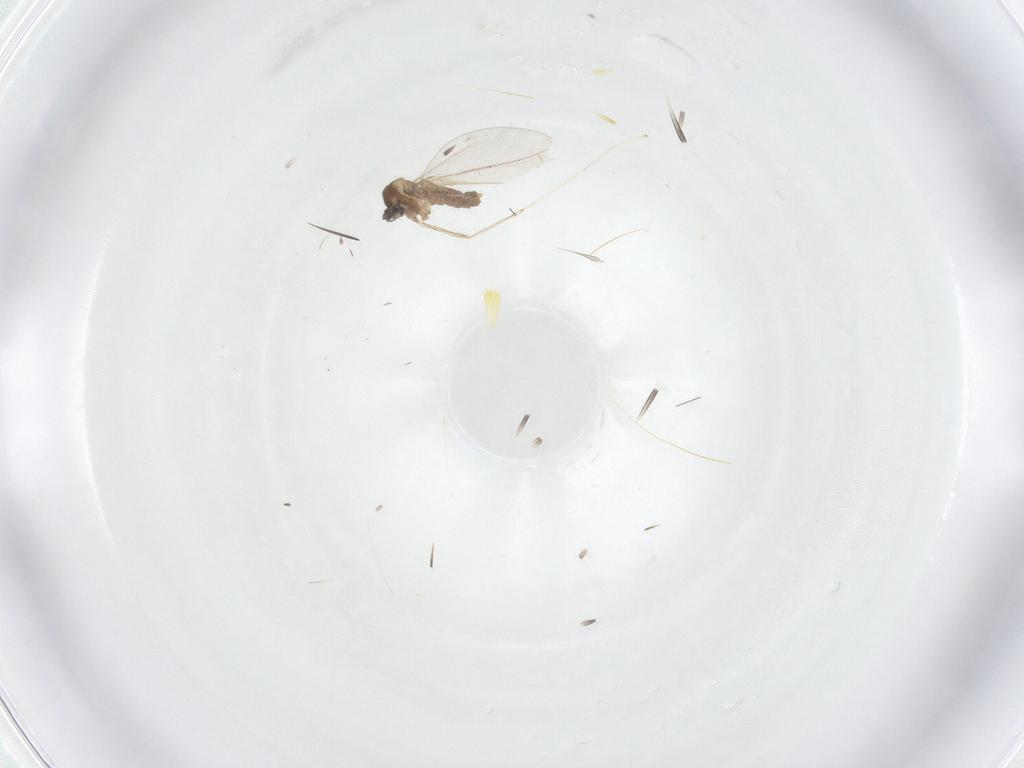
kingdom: Animalia
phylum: Arthropoda
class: Insecta
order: Diptera
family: Cecidomyiidae
